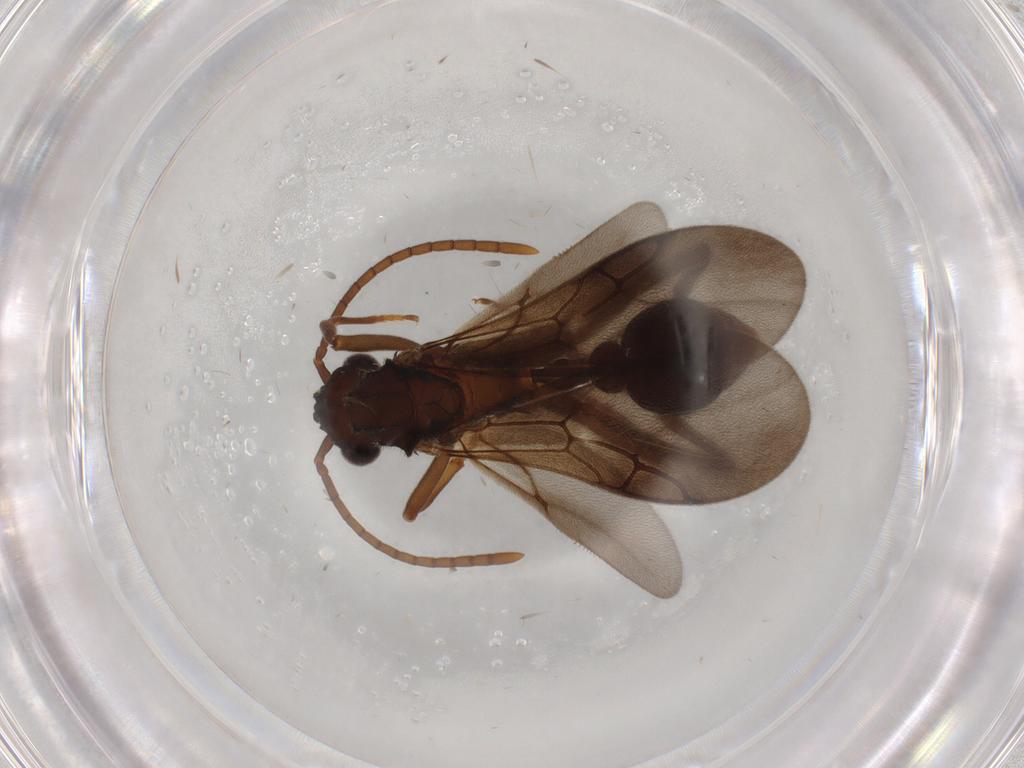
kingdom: Animalia
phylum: Arthropoda
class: Insecta
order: Hymenoptera
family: Formicidae
